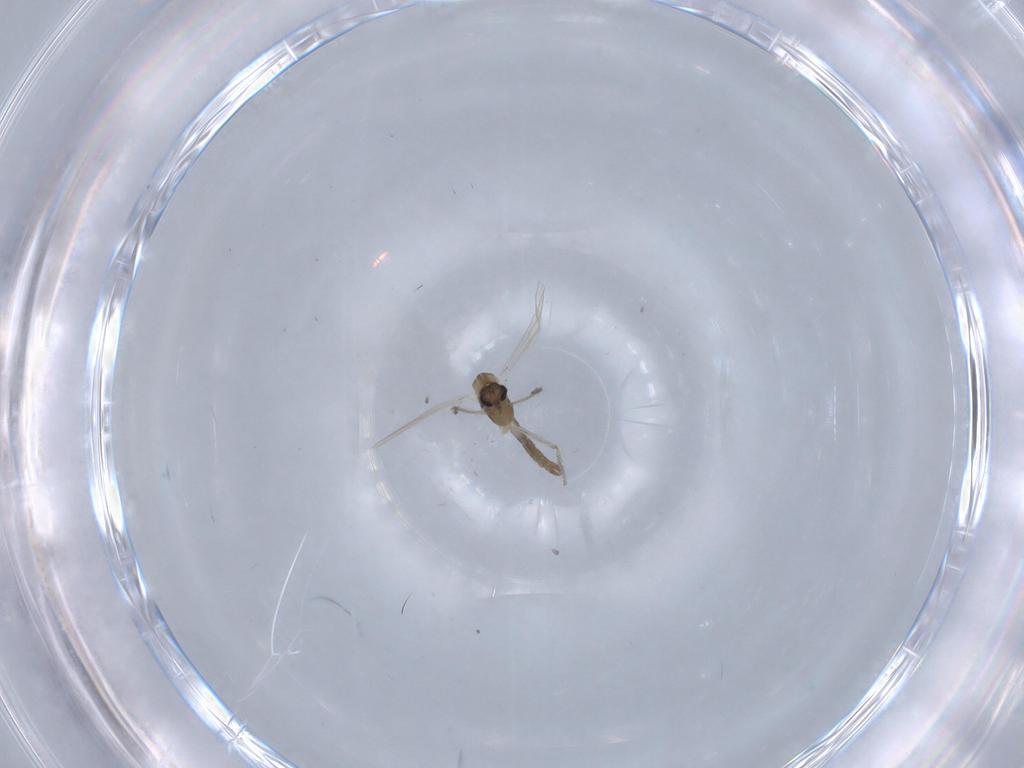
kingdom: Animalia
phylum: Arthropoda
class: Insecta
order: Diptera
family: Chironomidae
